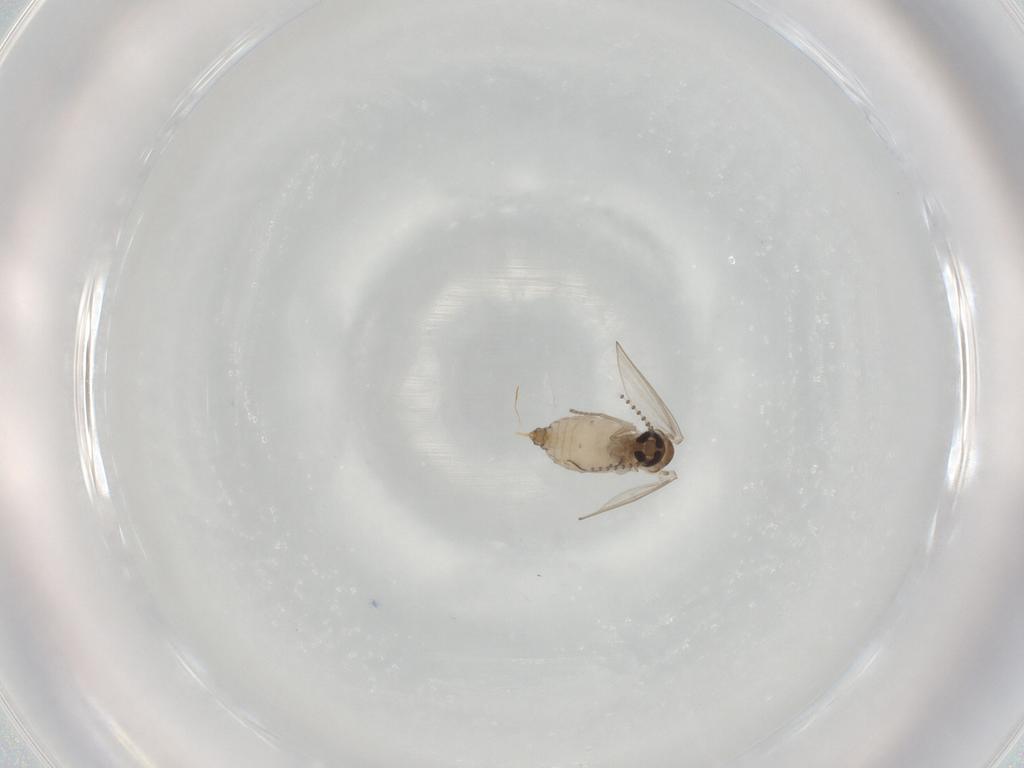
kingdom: Animalia
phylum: Arthropoda
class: Insecta
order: Diptera
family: Psychodidae
